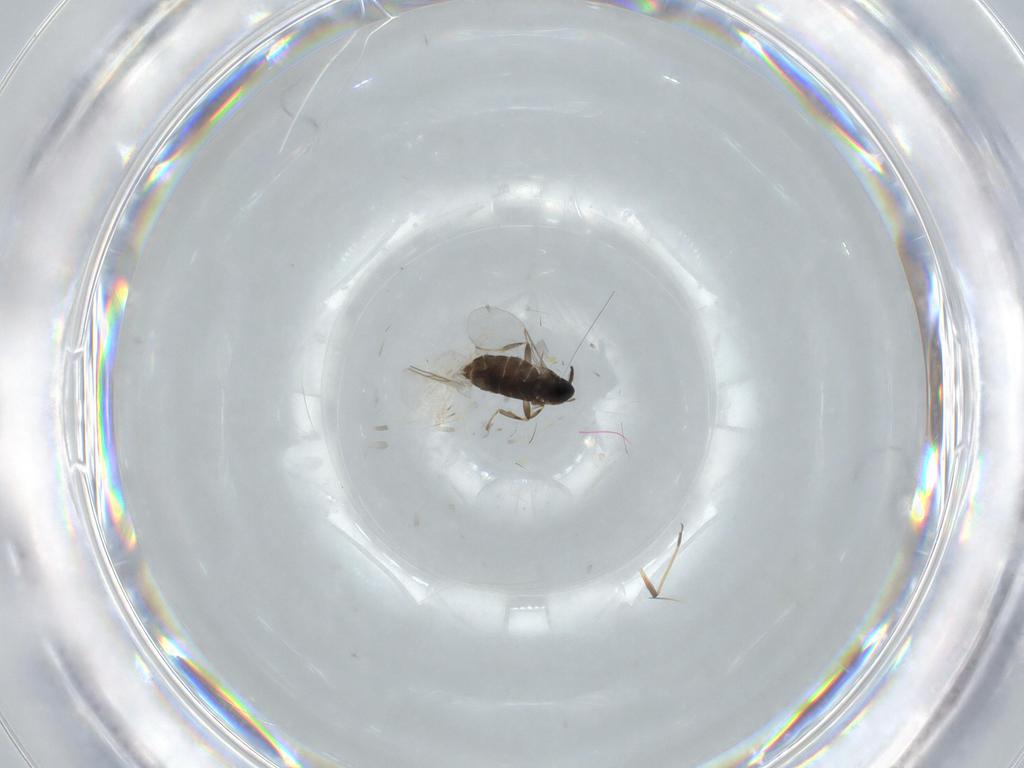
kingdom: Animalia
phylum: Arthropoda
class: Insecta
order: Diptera
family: Scatopsidae
